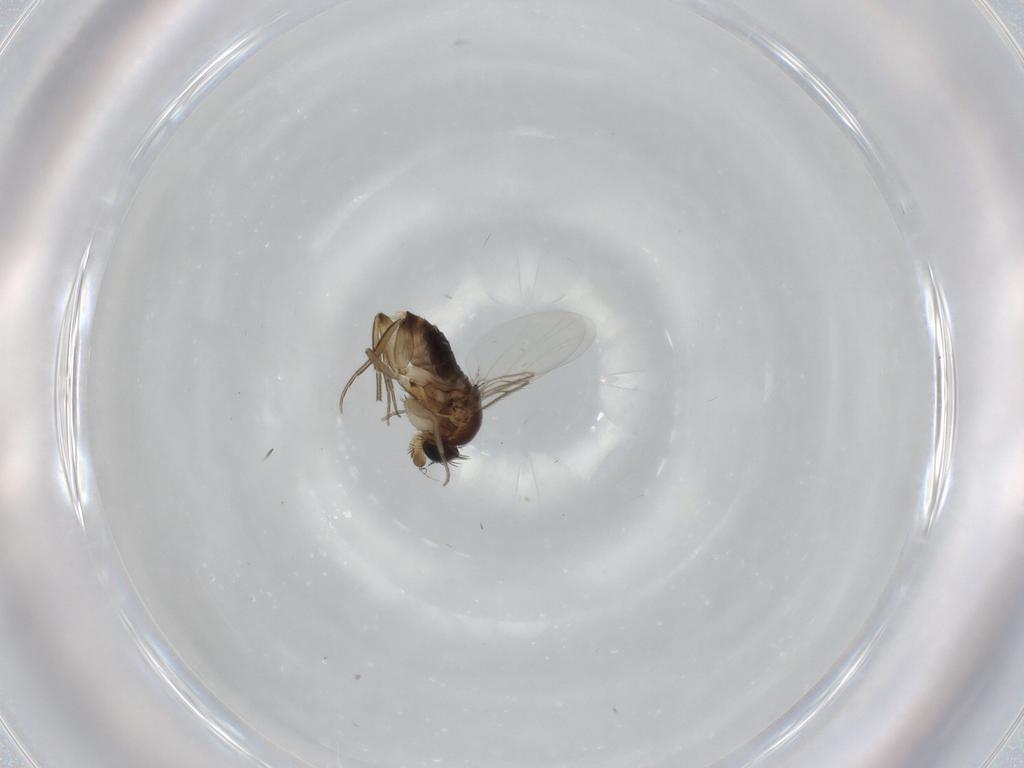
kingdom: Animalia
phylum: Arthropoda
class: Insecta
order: Diptera
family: Phoridae
